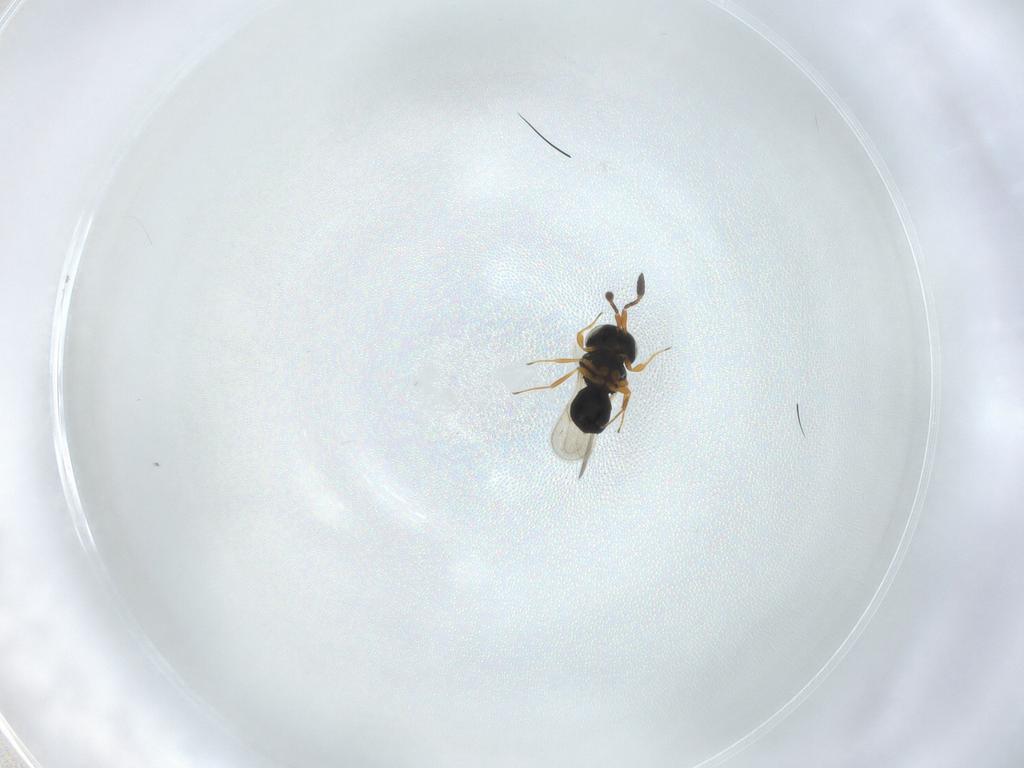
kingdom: Animalia
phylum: Arthropoda
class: Insecta
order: Hymenoptera
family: Scelionidae
